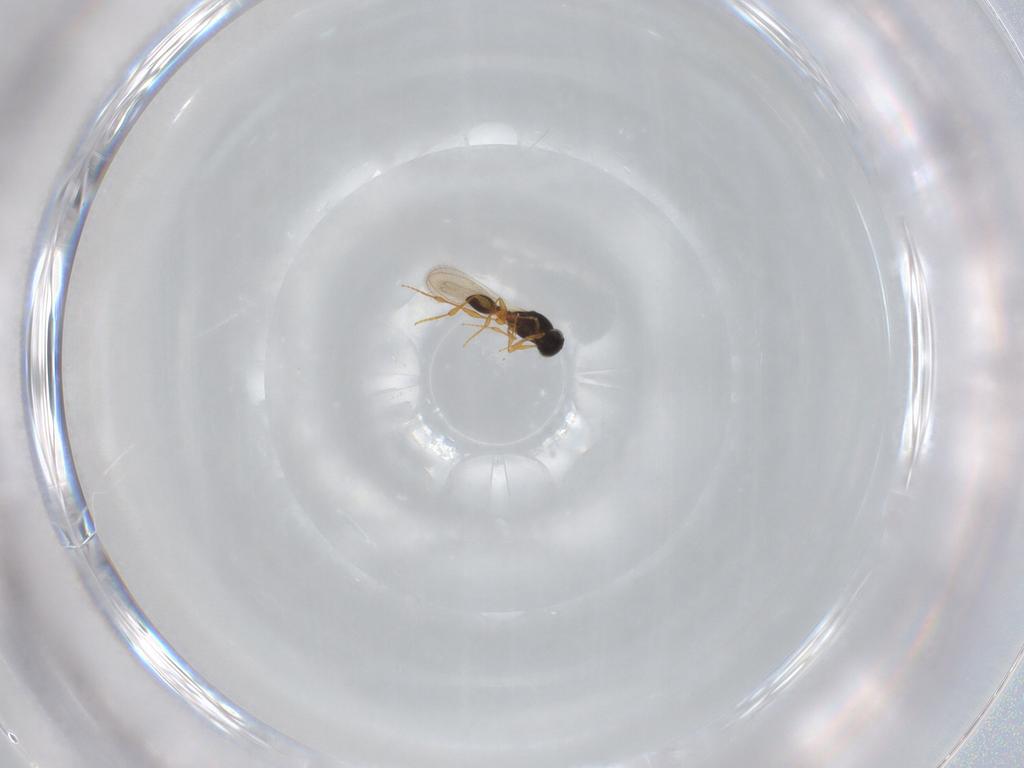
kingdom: Animalia
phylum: Arthropoda
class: Insecta
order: Hymenoptera
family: Platygastridae
